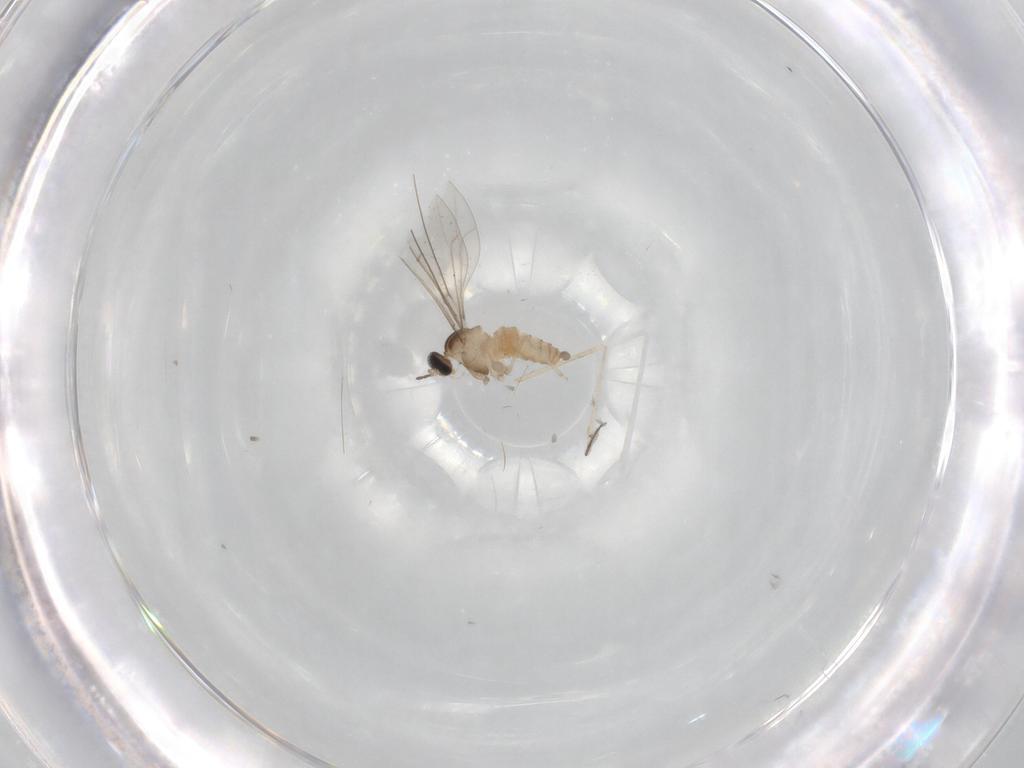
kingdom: Animalia
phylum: Arthropoda
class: Insecta
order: Diptera
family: Cecidomyiidae
